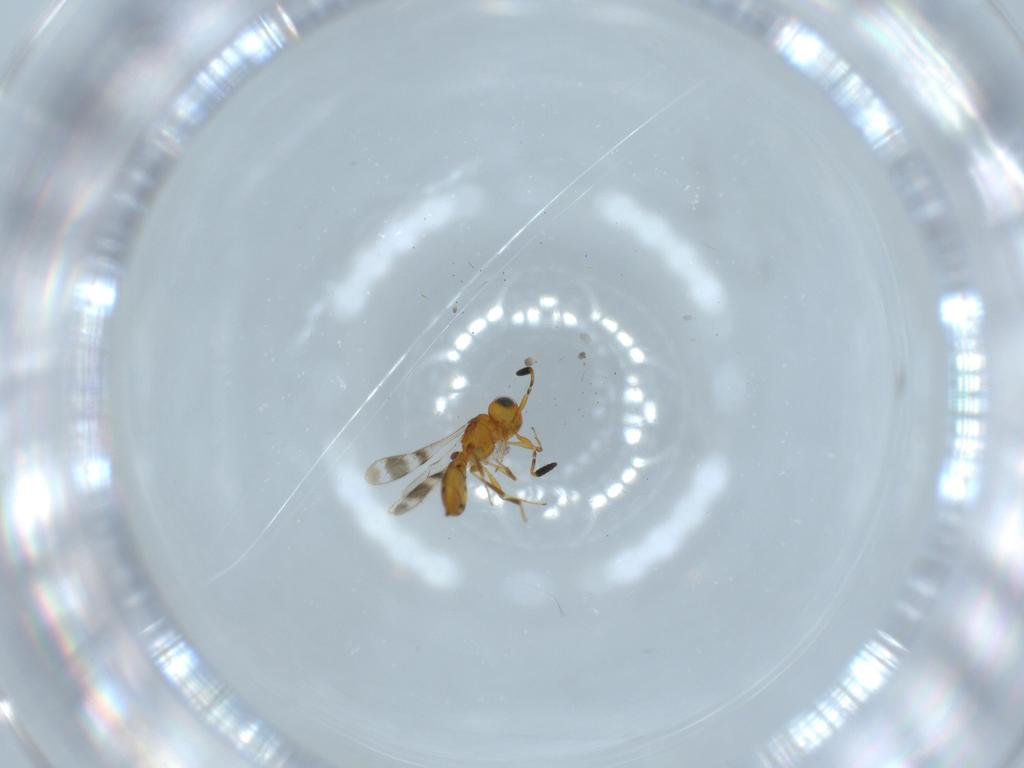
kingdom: Animalia
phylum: Arthropoda
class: Insecta
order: Hymenoptera
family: Scelionidae
